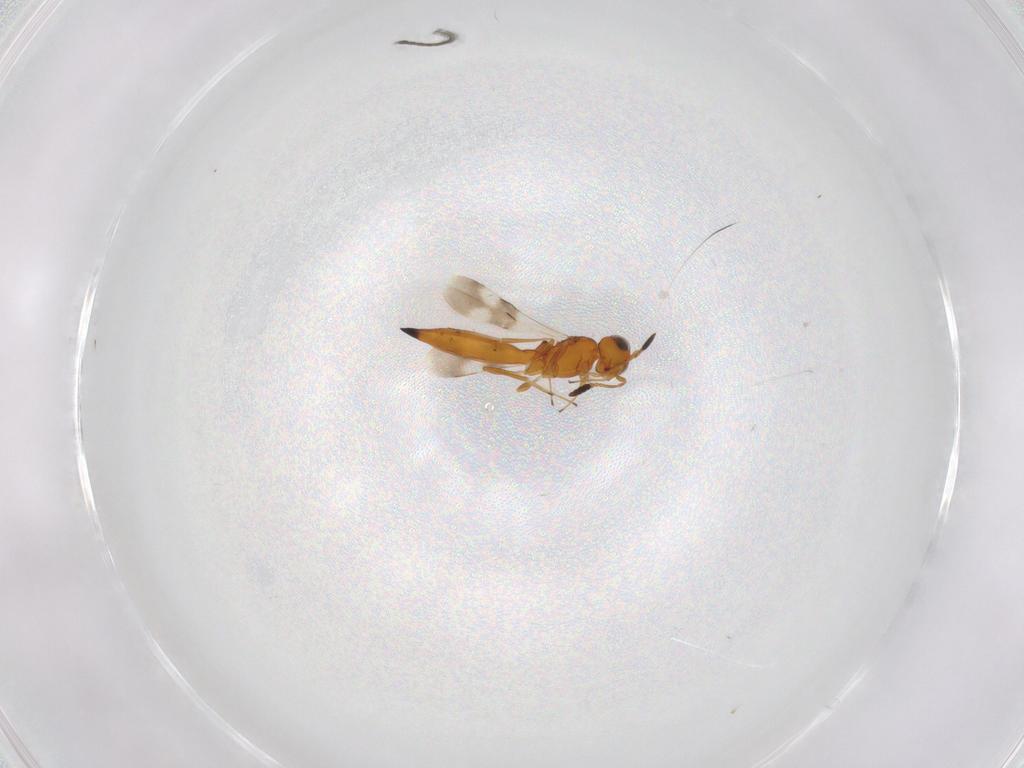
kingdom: Animalia
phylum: Arthropoda
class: Insecta
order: Hymenoptera
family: Scelionidae
